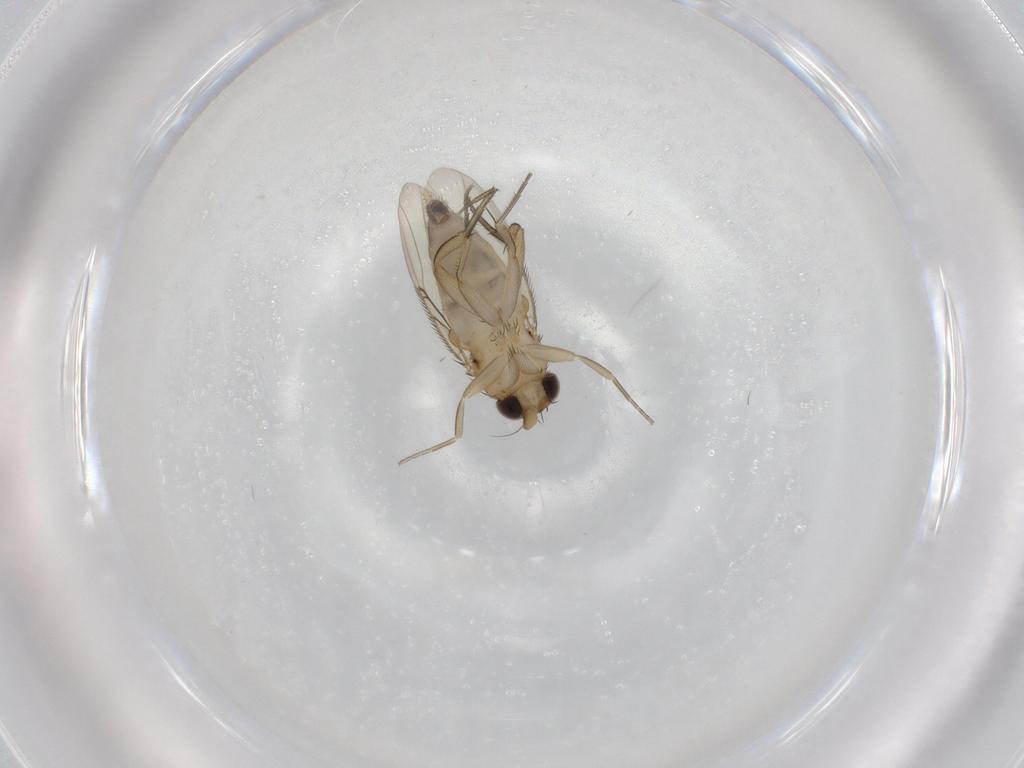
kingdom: Animalia
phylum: Arthropoda
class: Insecta
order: Diptera
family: Phoridae
